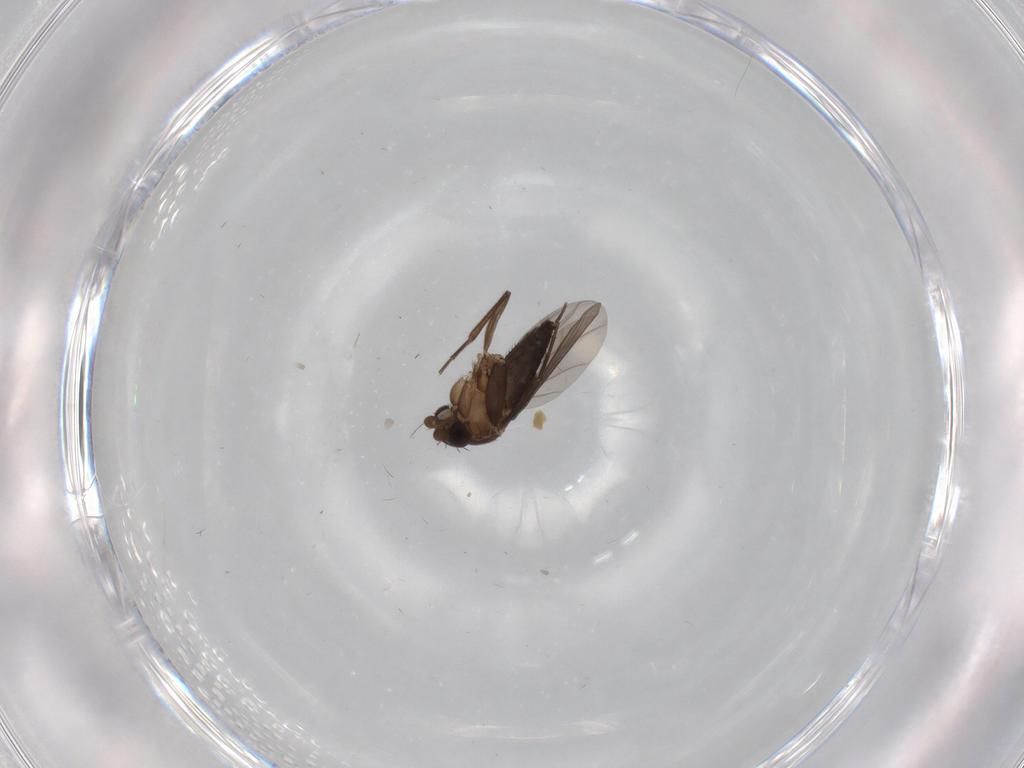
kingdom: Animalia
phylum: Arthropoda
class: Insecta
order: Diptera
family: Phoridae
